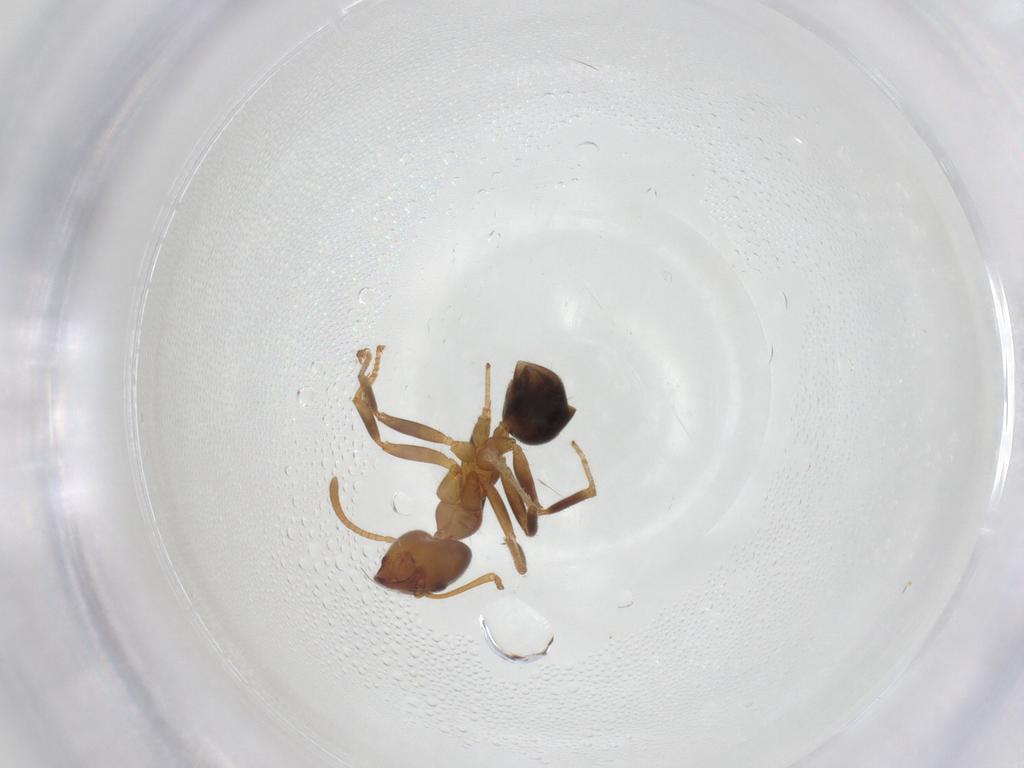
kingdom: Animalia
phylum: Arthropoda
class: Insecta
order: Hymenoptera
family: Formicidae
